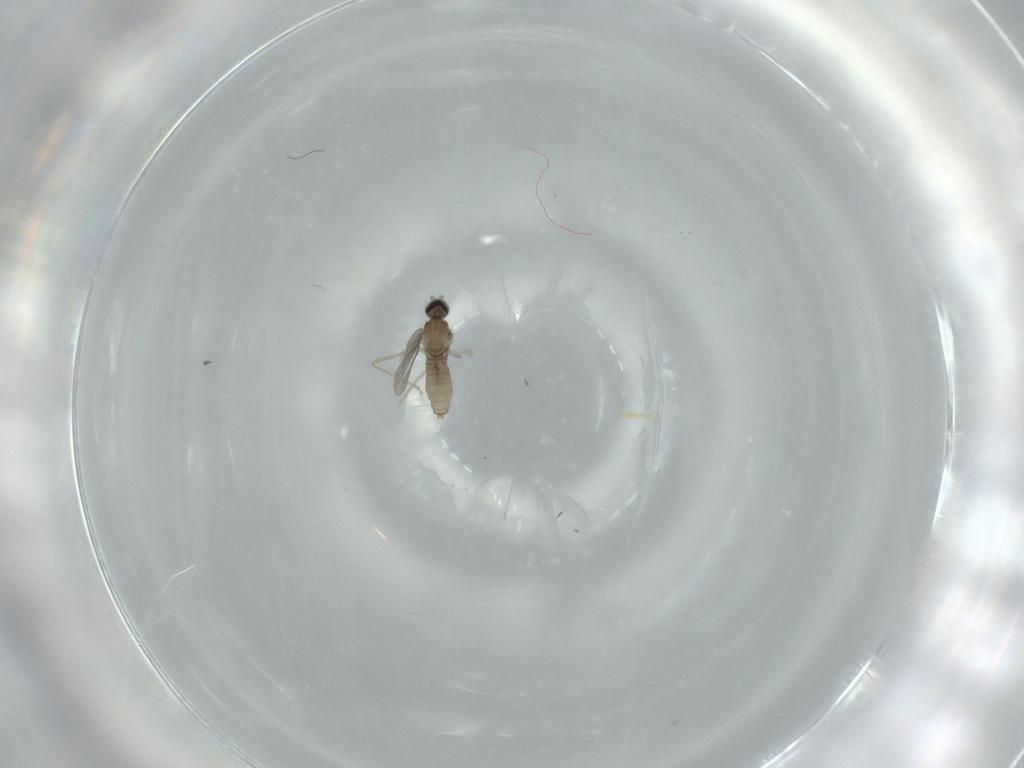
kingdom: Animalia
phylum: Arthropoda
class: Insecta
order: Diptera
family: Cecidomyiidae
